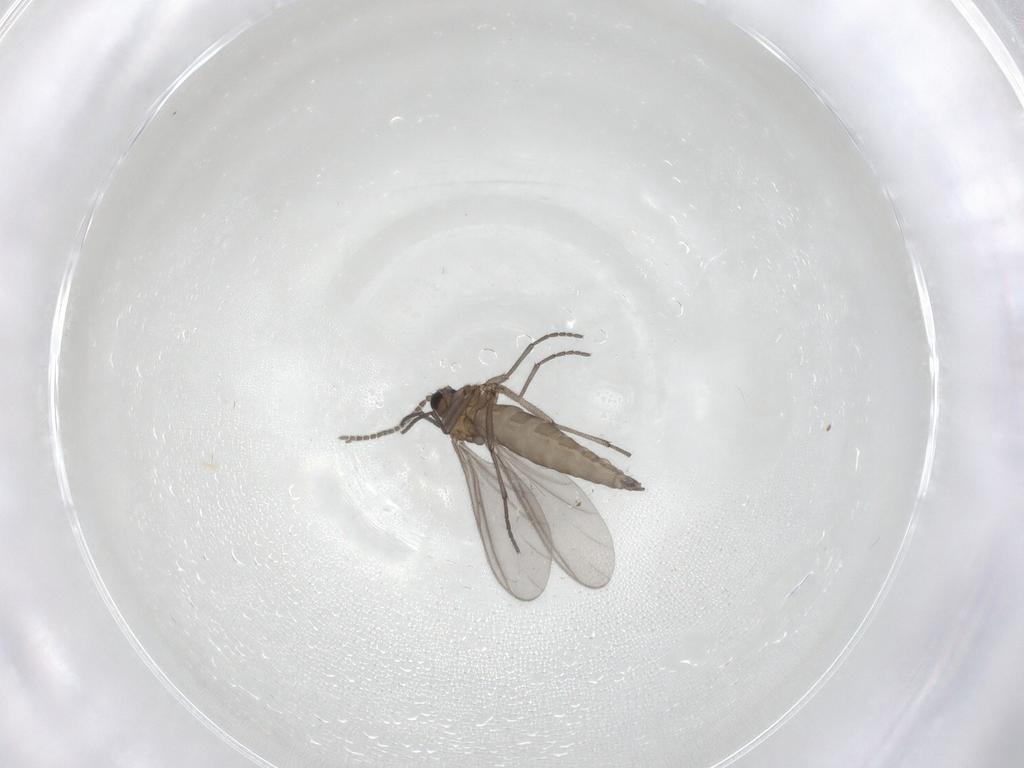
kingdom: Animalia
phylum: Arthropoda
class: Insecta
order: Diptera
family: Sciaridae
